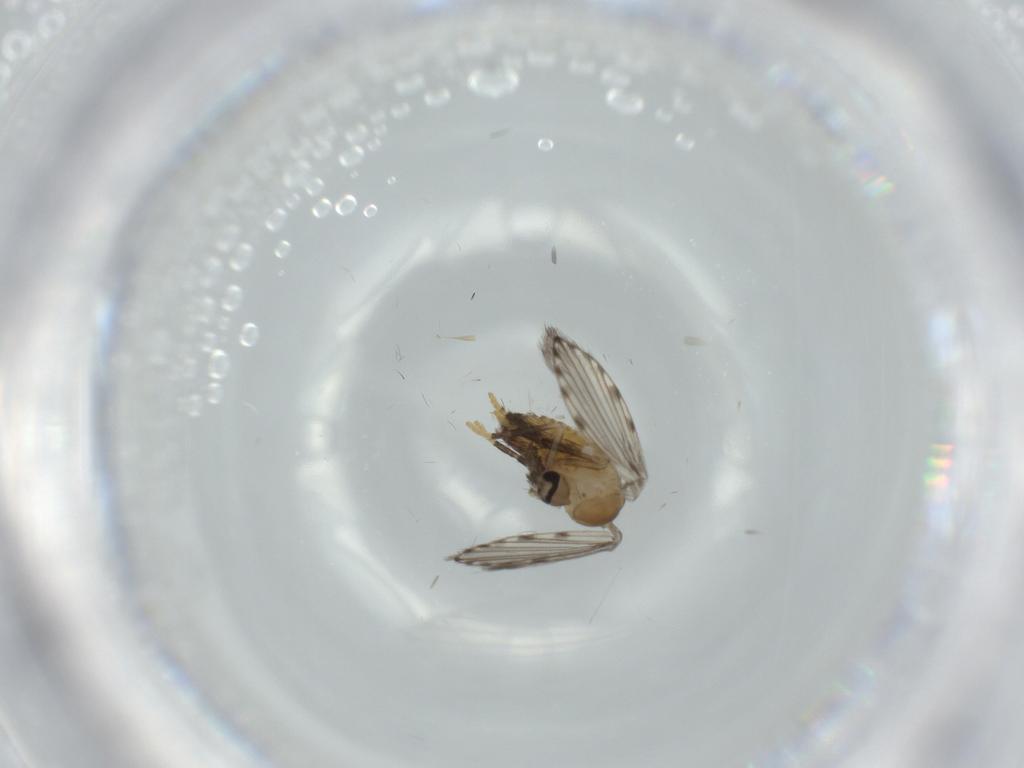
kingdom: Animalia
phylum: Arthropoda
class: Insecta
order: Diptera
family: Psychodidae
